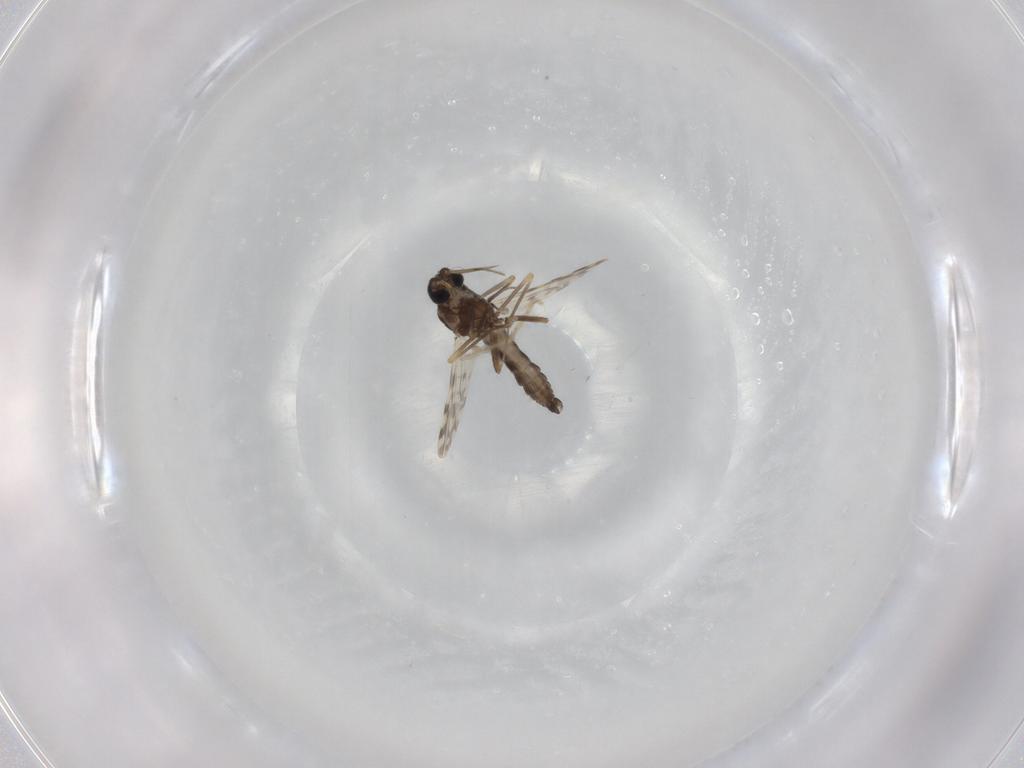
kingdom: Animalia
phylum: Arthropoda
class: Insecta
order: Diptera
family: Ceratopogonidae
